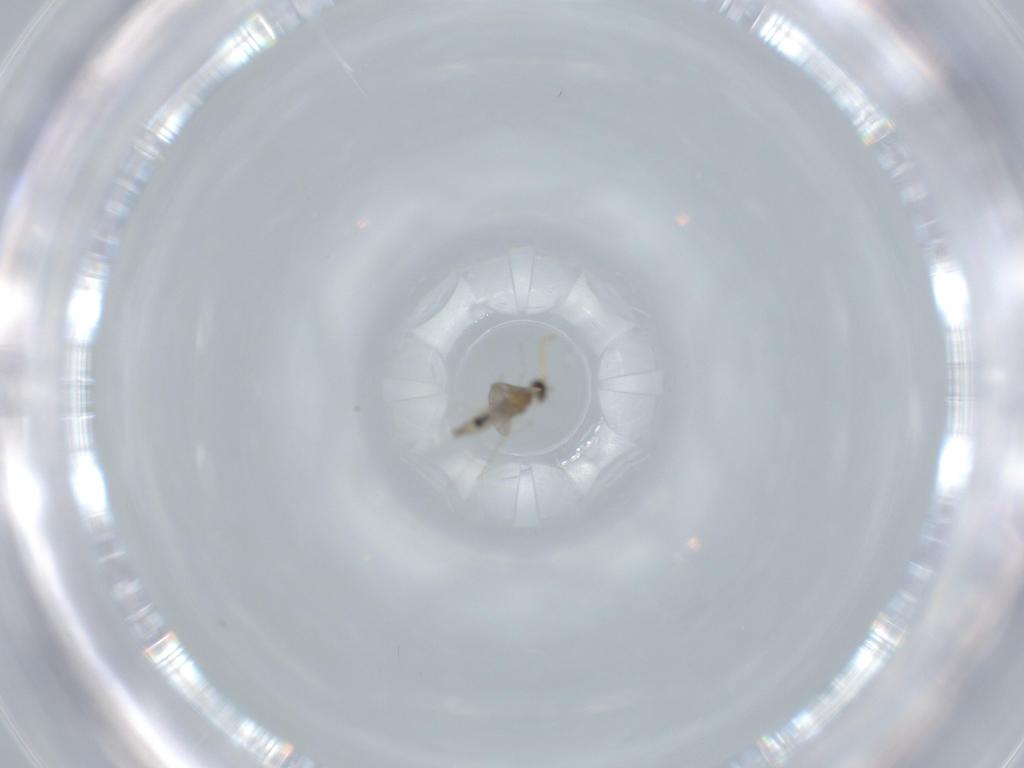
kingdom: Animalia
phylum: Arthropoda
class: Insecta
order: Diptera
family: Cecidomyiidae
